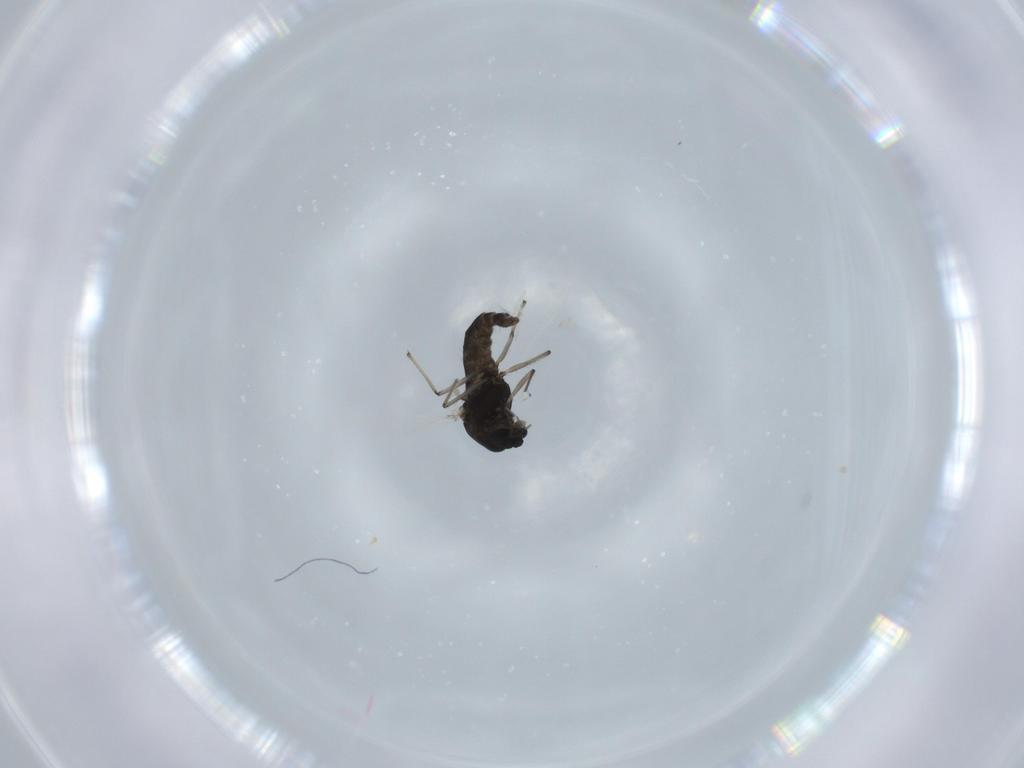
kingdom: Animalia
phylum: Arthropoda
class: Insecta
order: Diptera
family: Chironomidae
